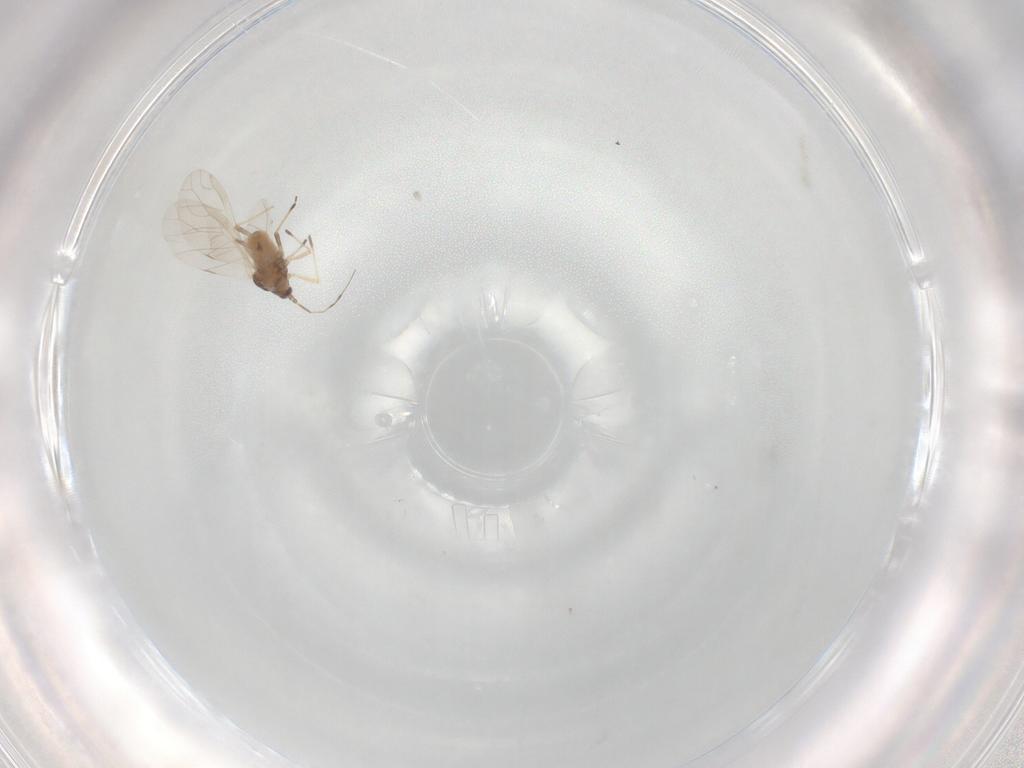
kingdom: Animalia
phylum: Arthropoda
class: Insecta
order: Hemiptera
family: Aphididae
